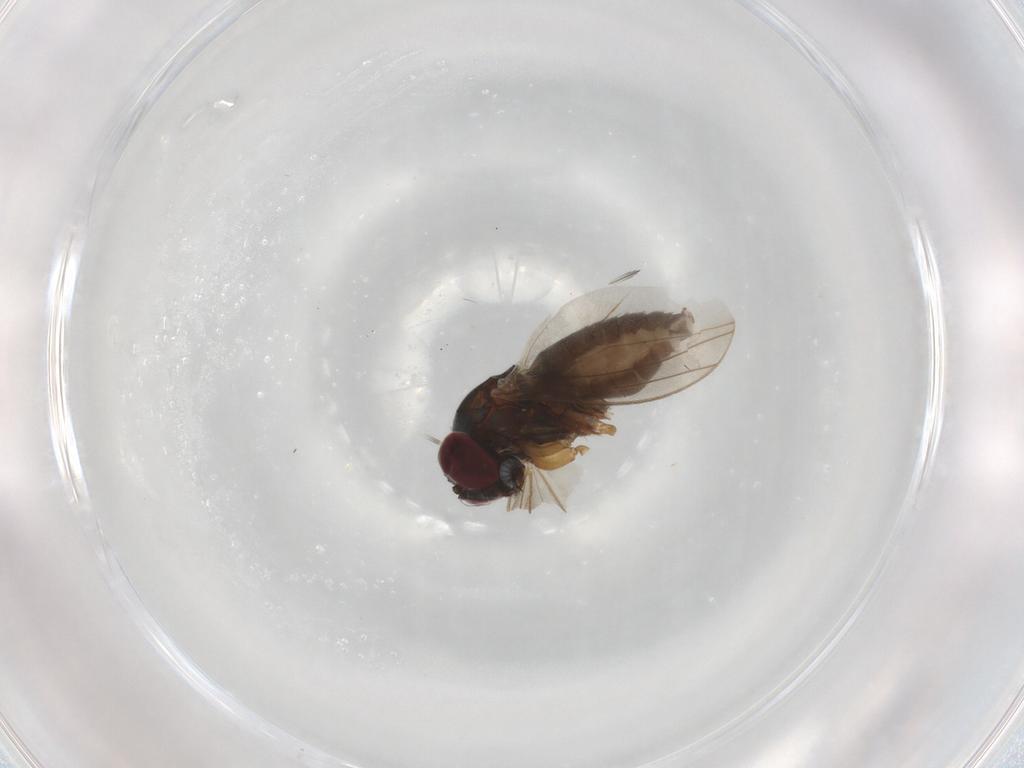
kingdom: Animalia
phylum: Arthropoda
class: Insecta
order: Diptera
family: Dolichopodidae
